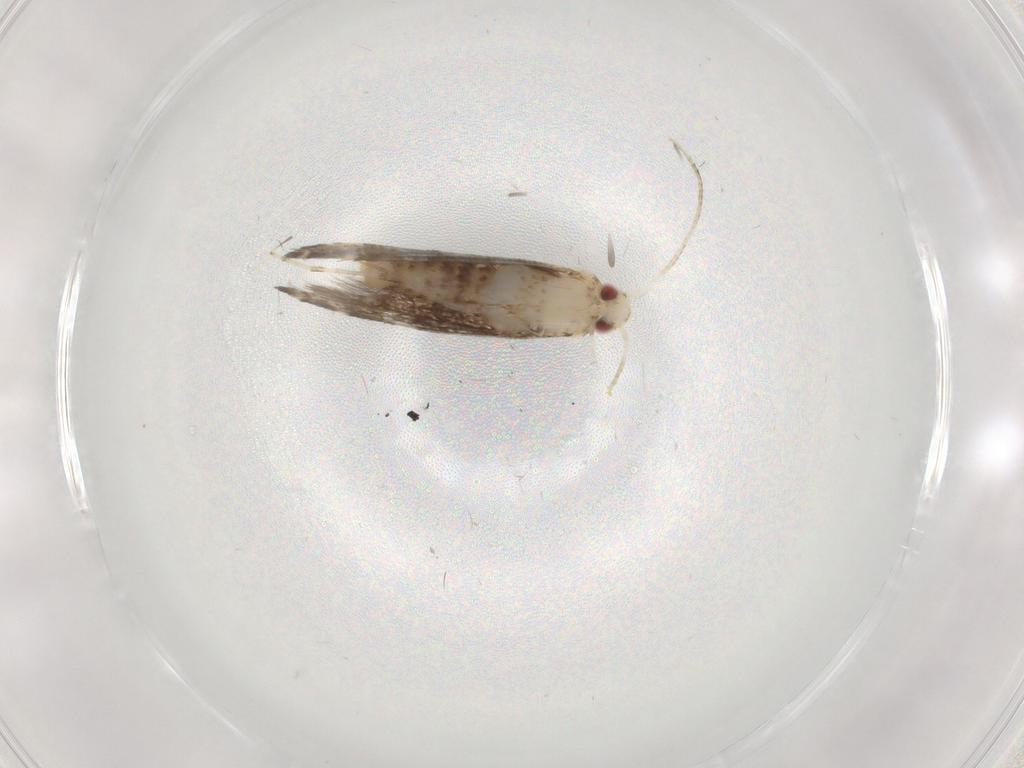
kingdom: Animalia
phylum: Arthropoda
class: Insecta
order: Lepidoptera
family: Gracillariidae
